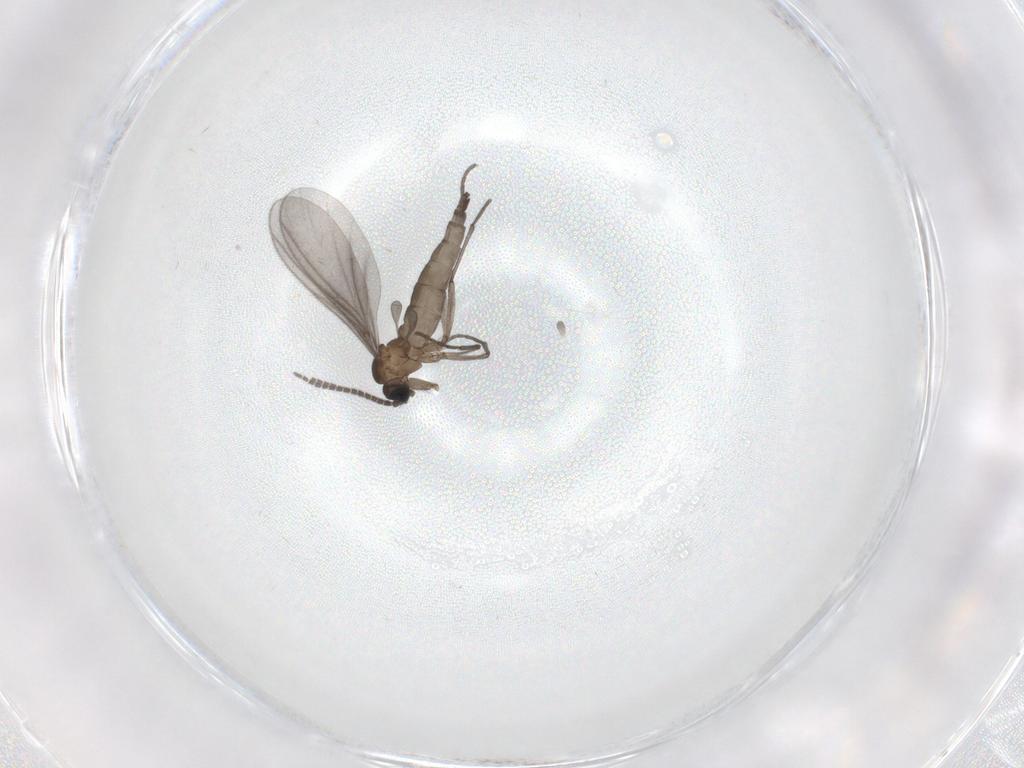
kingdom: Animalia
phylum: Arthropoda
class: Insecta
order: Diptera
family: Sciaridae
